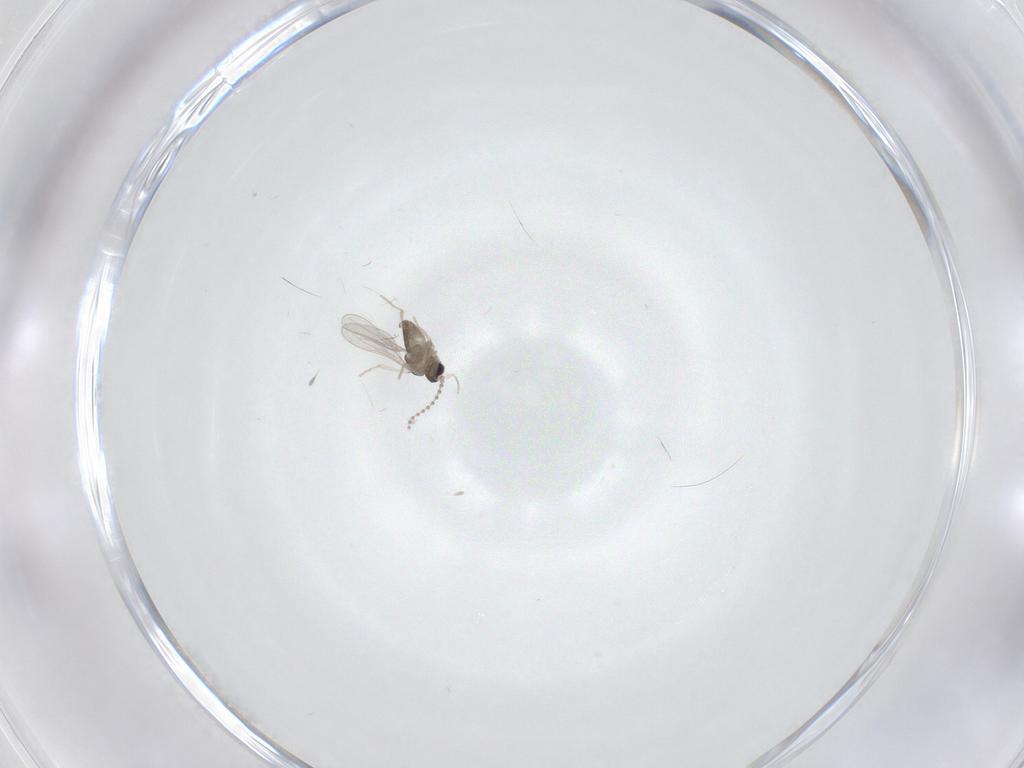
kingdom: Animalia
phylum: Arthropoda
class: Insecta
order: Diptera
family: Cecidomyiidae
